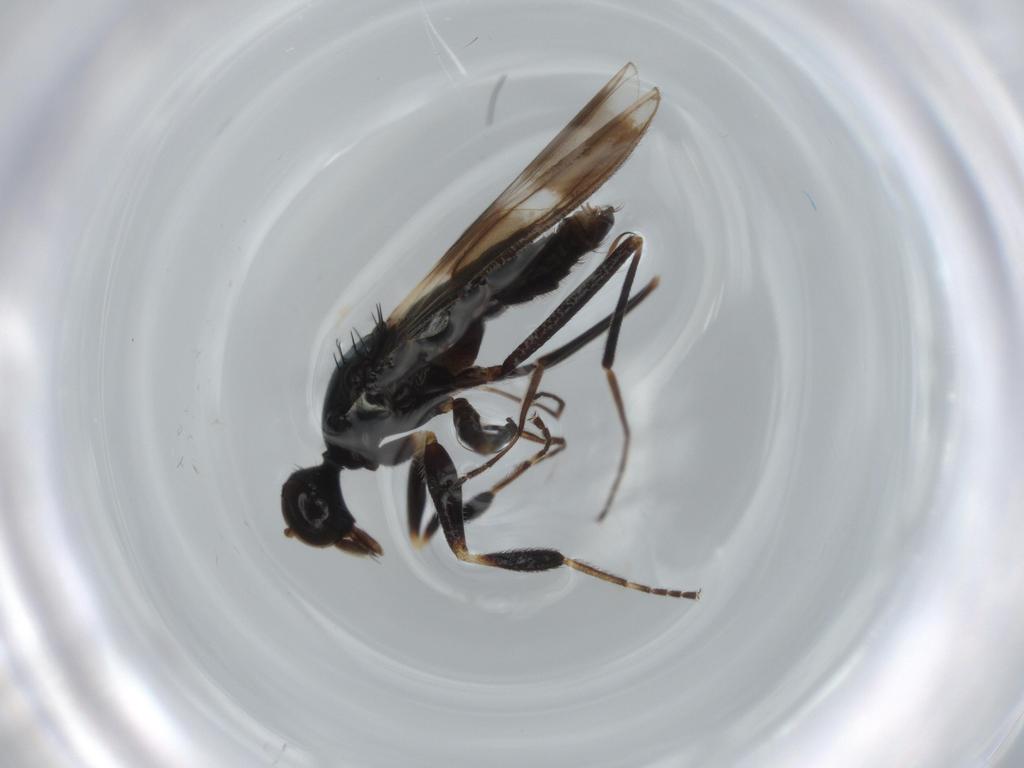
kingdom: Animalia
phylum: Arthropoda
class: Insecta
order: Diptera
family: Hybotidae
